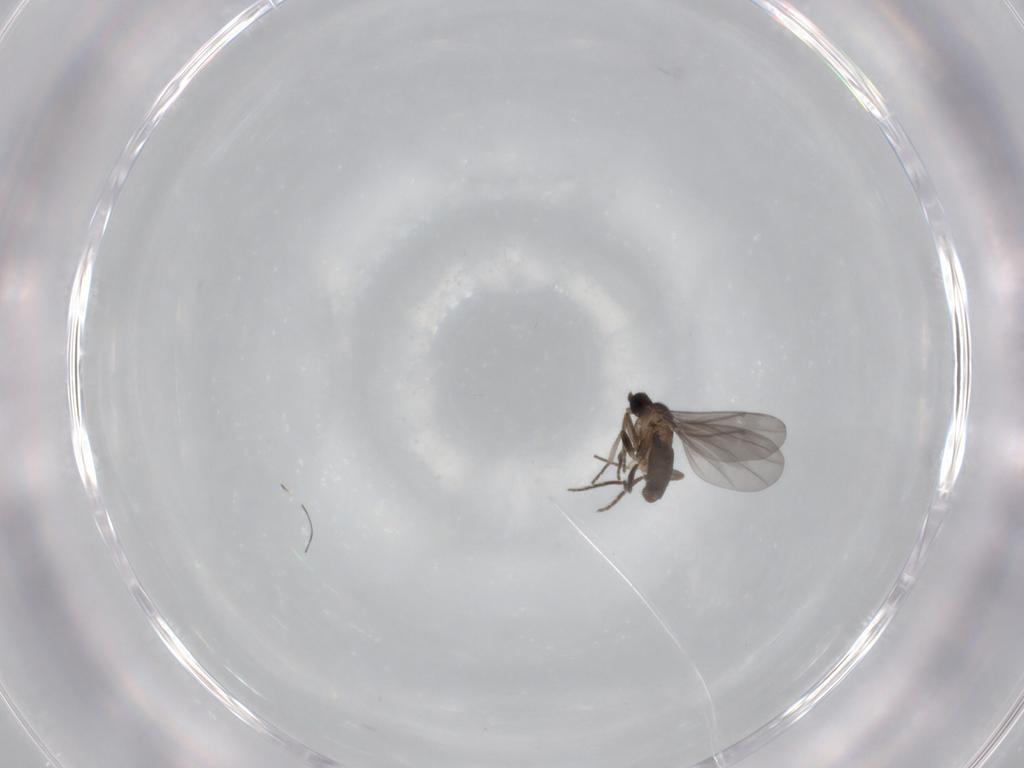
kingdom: Animalia
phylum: Arthropoda
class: Insecta
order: Diptera
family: Phoridae
